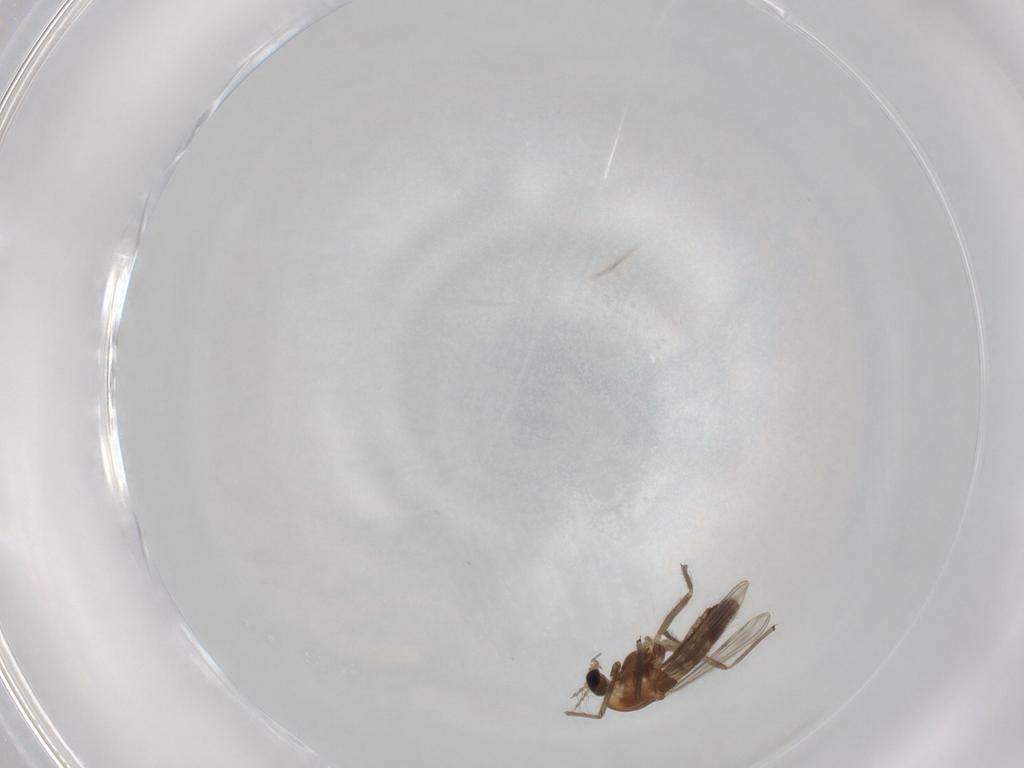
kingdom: Animalia
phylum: Arthropoda
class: Insecta
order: Diptera
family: Chironomidae
